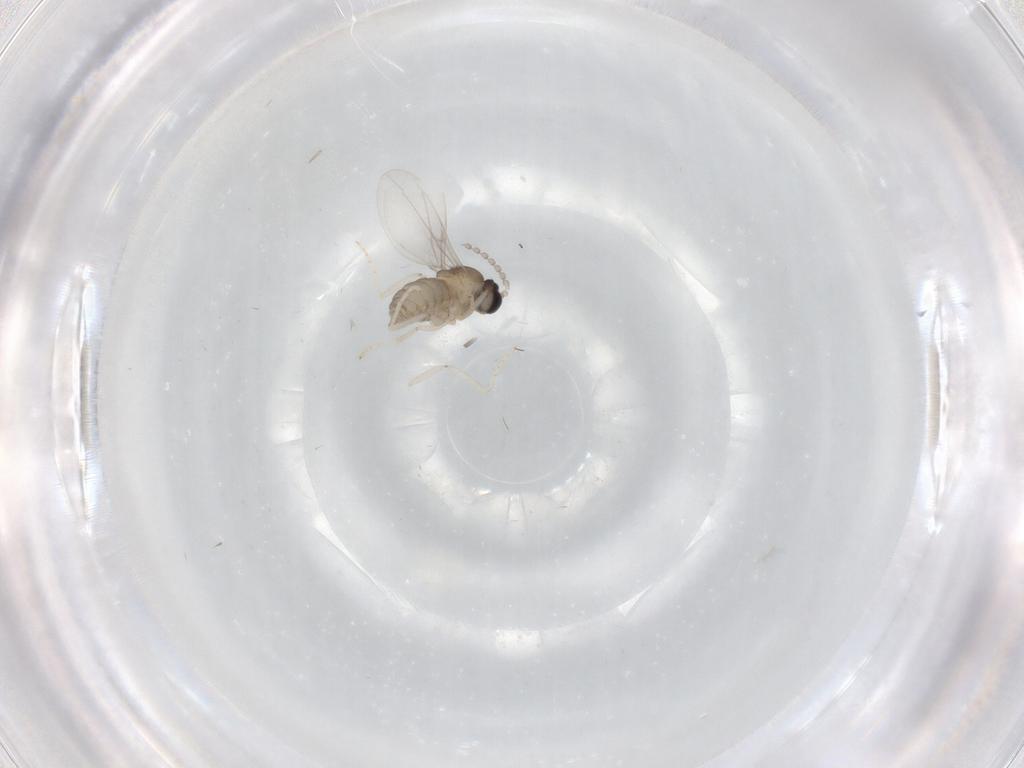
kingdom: Animalia
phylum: Arthropoda
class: Insecta
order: Diptera
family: Cecidomyiidae
